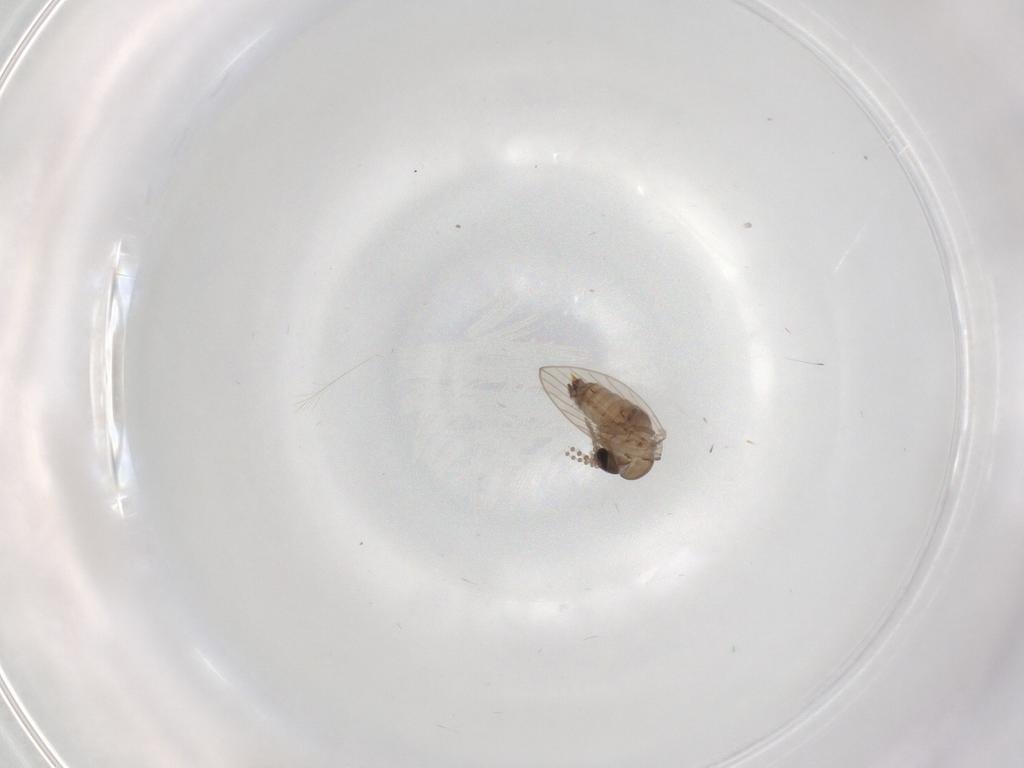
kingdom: Animalia
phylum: Arthropoda
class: Insecta
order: Diptera
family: Psychodidae
